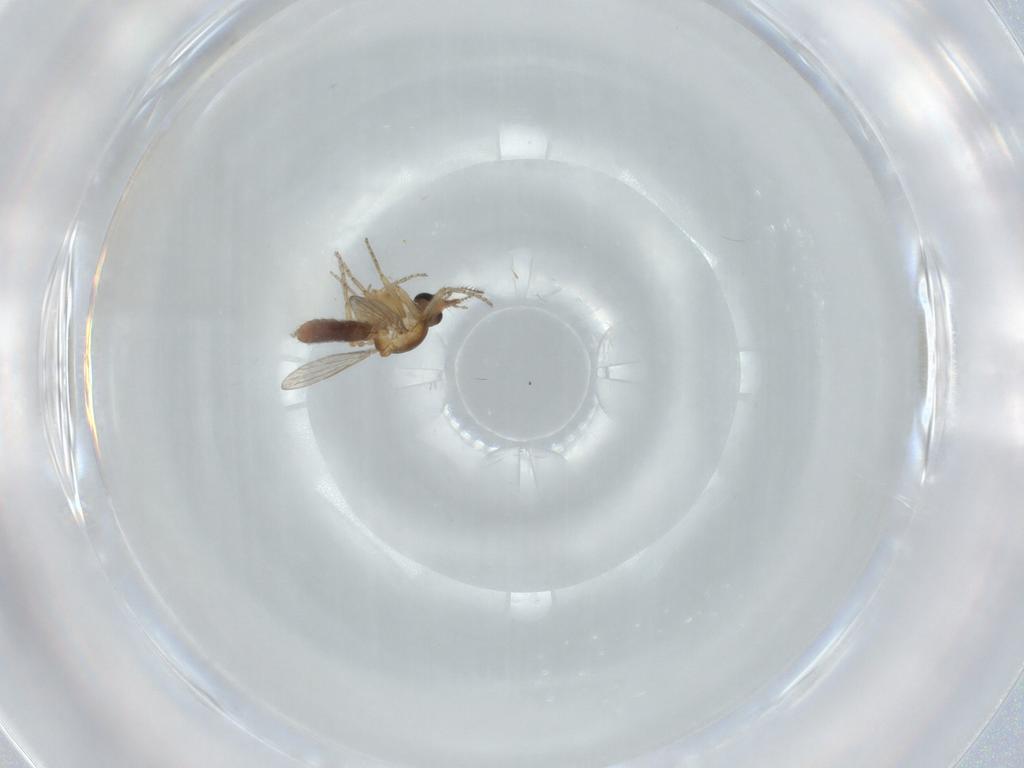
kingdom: Animalia
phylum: Arthropoda
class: Insecta
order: Diptera
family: Ceratopogonidae
